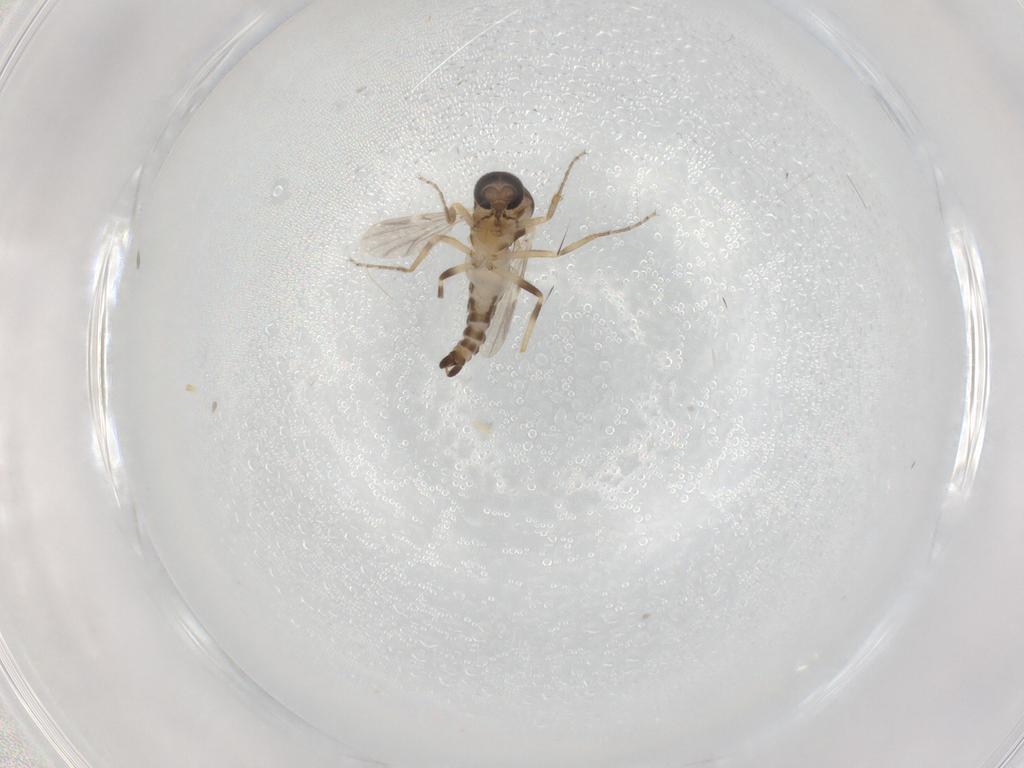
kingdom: Animalia
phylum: Arthropoda
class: Insecta
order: Diptera
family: Ceratopogonidae
